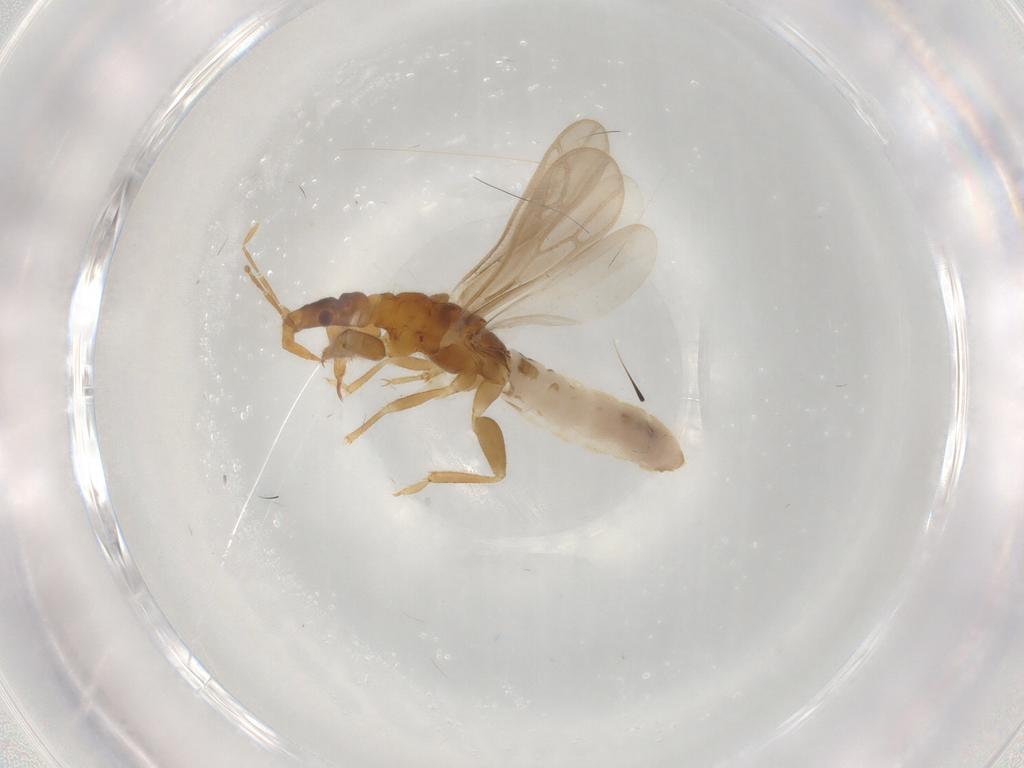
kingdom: Animalia
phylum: Arthropoda
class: Insecta
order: Hemiptera
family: Enicocephalidae
